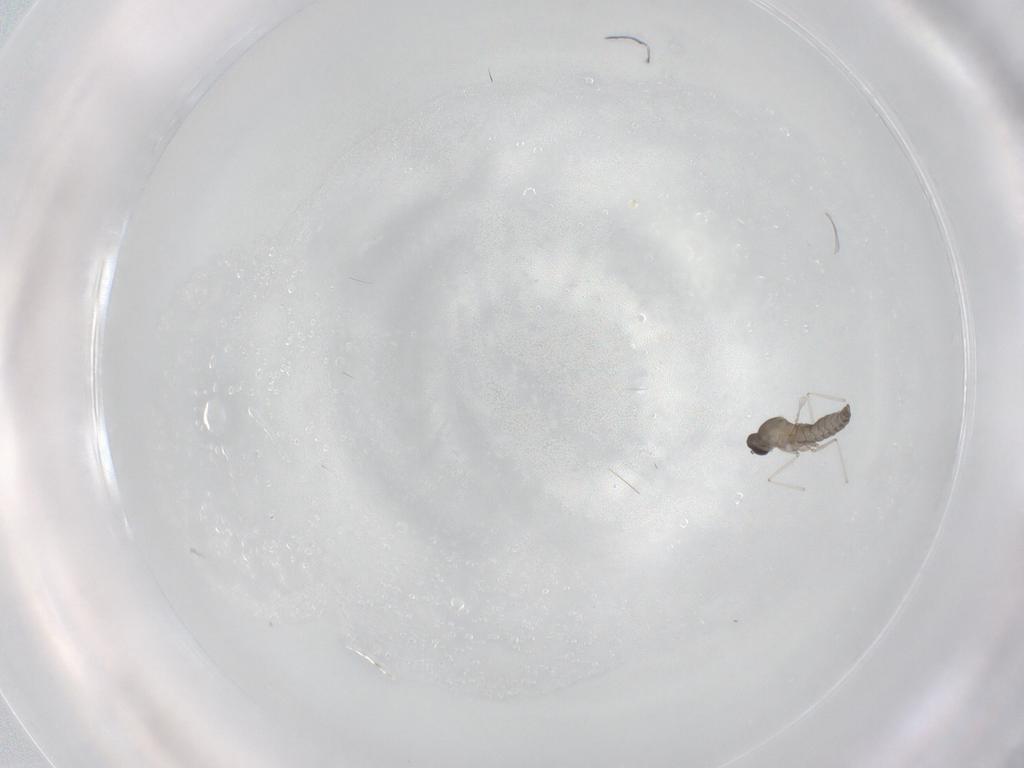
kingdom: Animalia
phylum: Arthropoda
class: Insecta
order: Diptera
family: Cecidomyiidae
